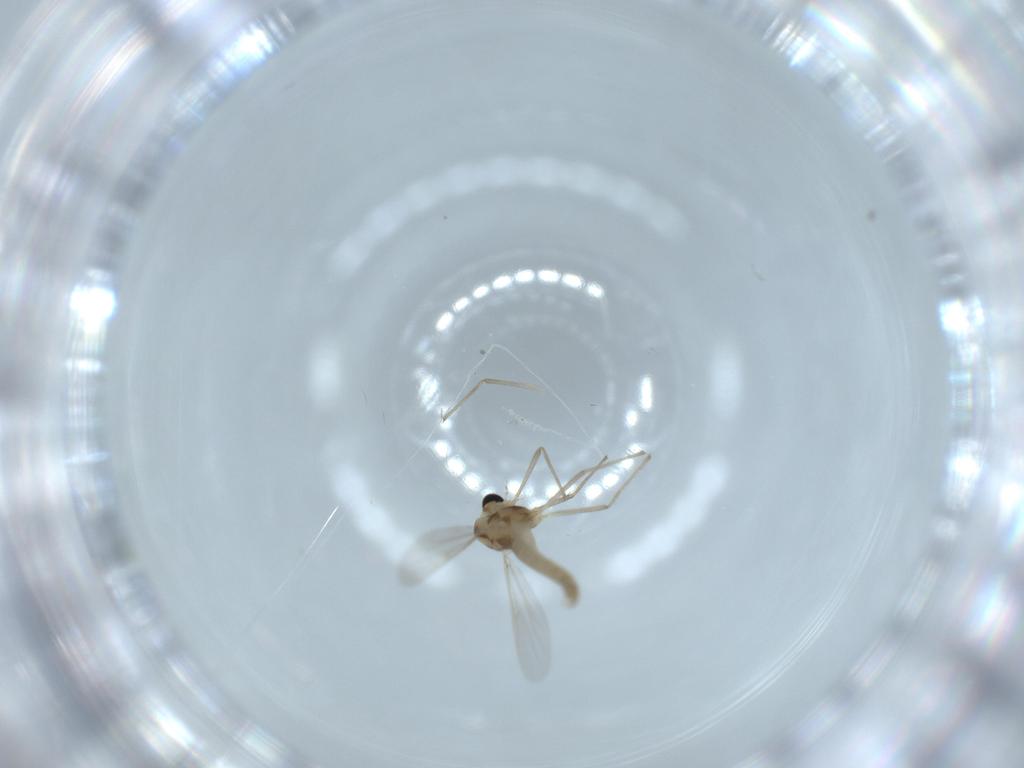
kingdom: Animalia
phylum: Arthropoda
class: Insecta
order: Diptera
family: Chironomidae
